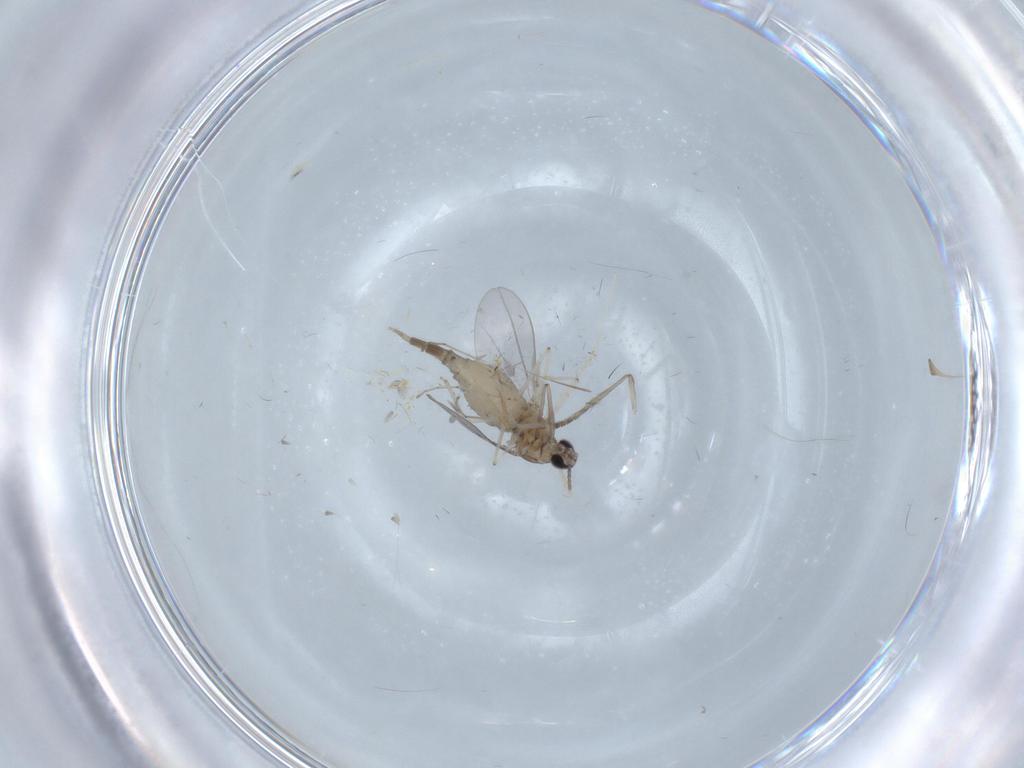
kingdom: Animalia
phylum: Arthropoda
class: Insecta
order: Diptera
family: Cecidomyiidae
